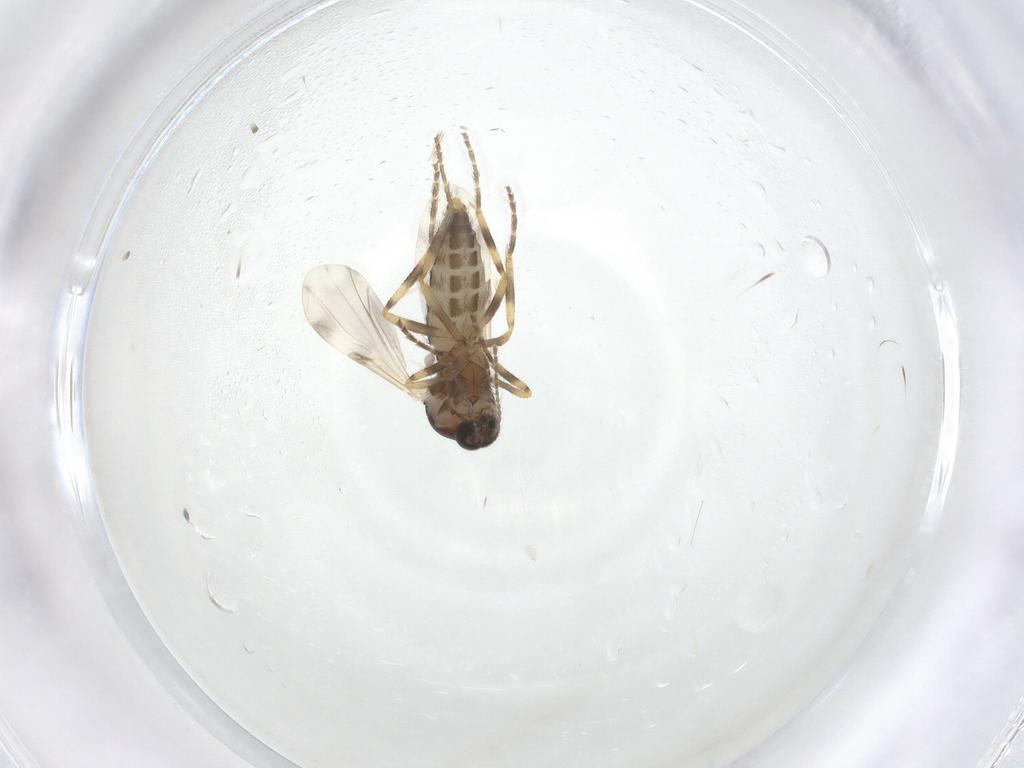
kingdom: Animalia
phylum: Arthropoda
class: Insecta
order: Diptera
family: Ceratopogonidae
